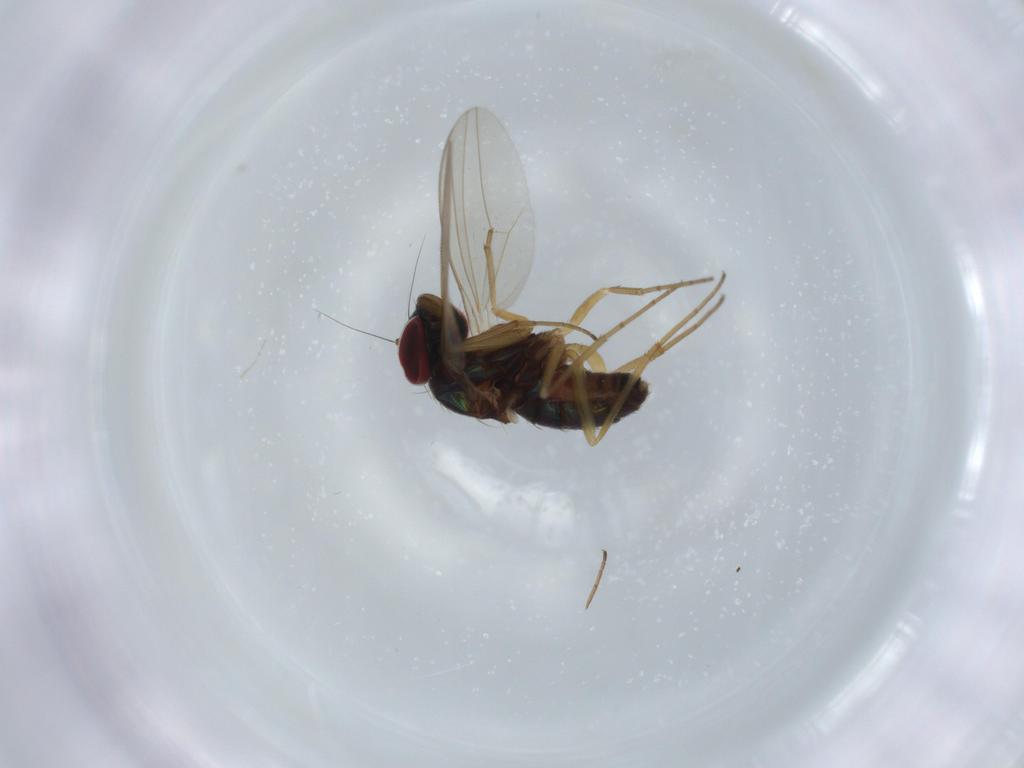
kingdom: Animalia
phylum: Arthropoda
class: Insecta
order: Diptera
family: Dolichopodidae
